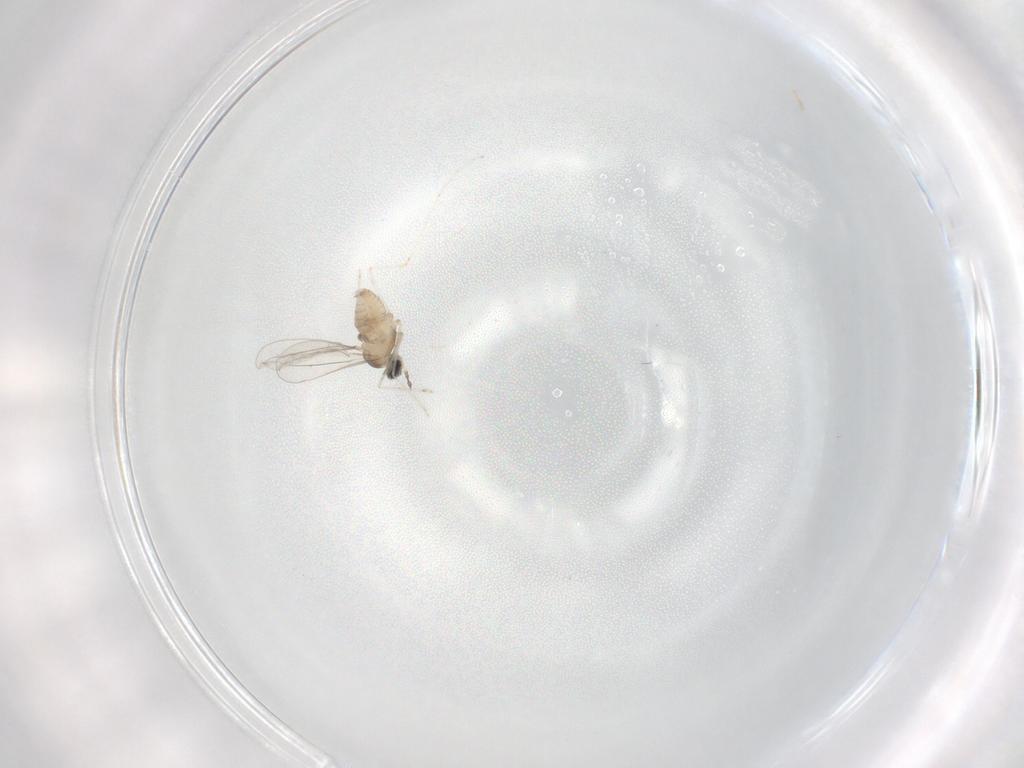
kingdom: Animalia
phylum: Arthropoda
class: Insecta
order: Diptera
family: Cecidomyiidae
